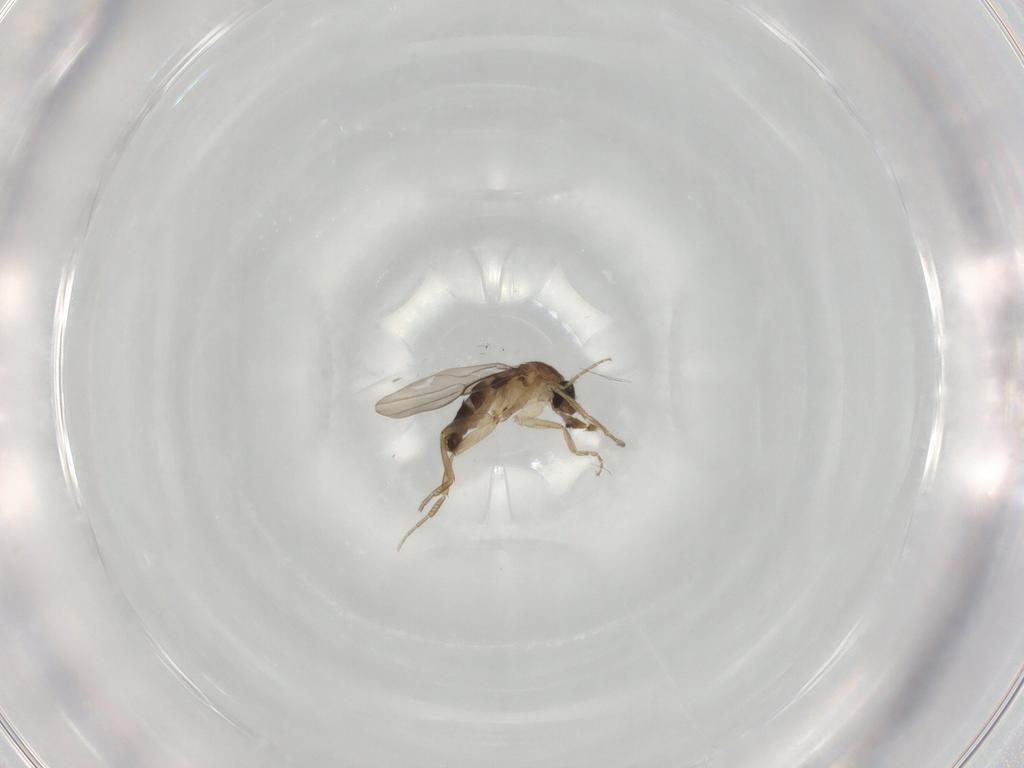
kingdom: Animalia
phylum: Arthropoda
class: Insecta
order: Diptera
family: Phoridae
